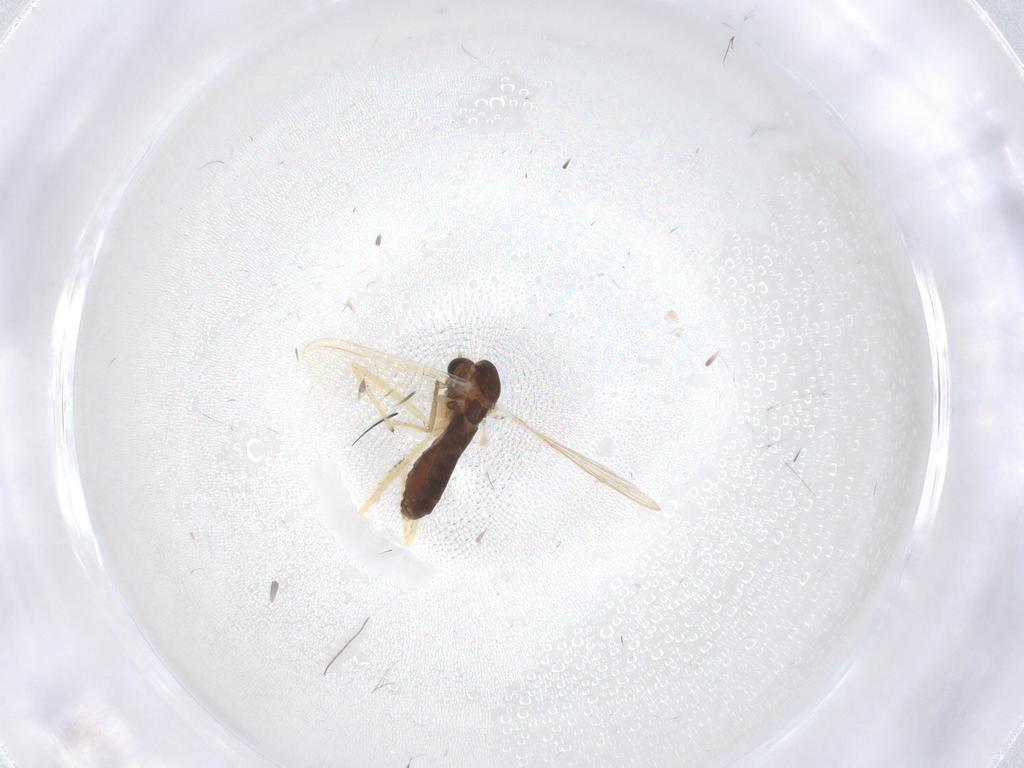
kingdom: Animalia
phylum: Arthropoda
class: Insecta
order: Diptera
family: Chironomidae
